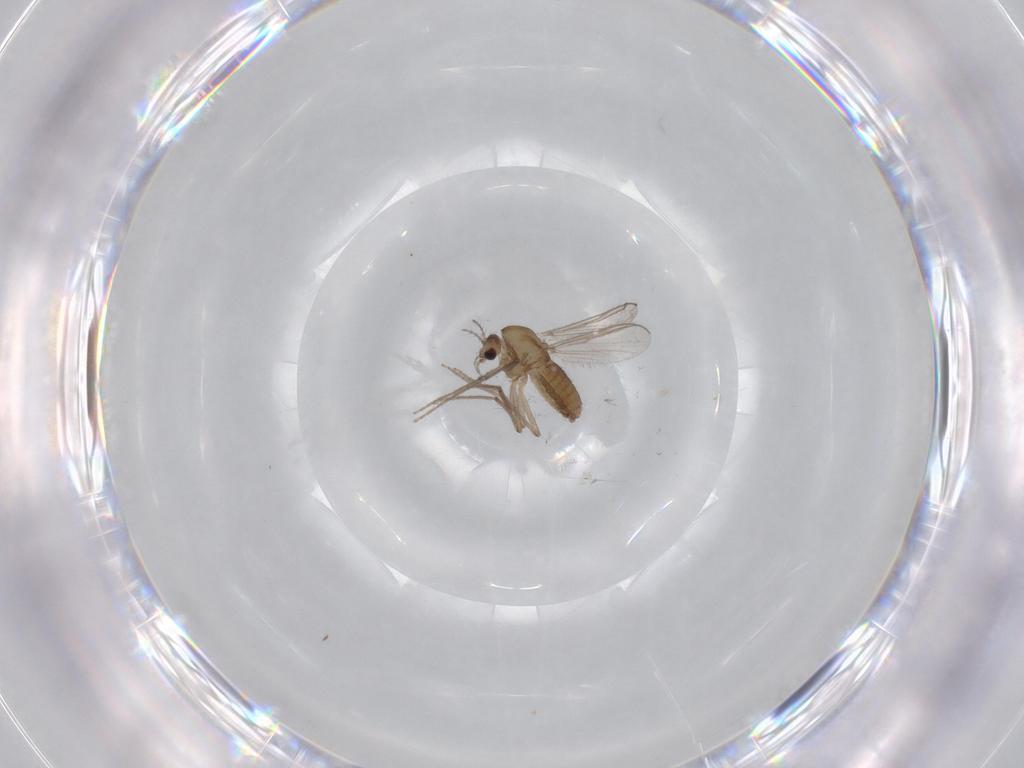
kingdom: Animalia
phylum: Arthropoda
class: Insecta
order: Diptera
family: Chironomidae
